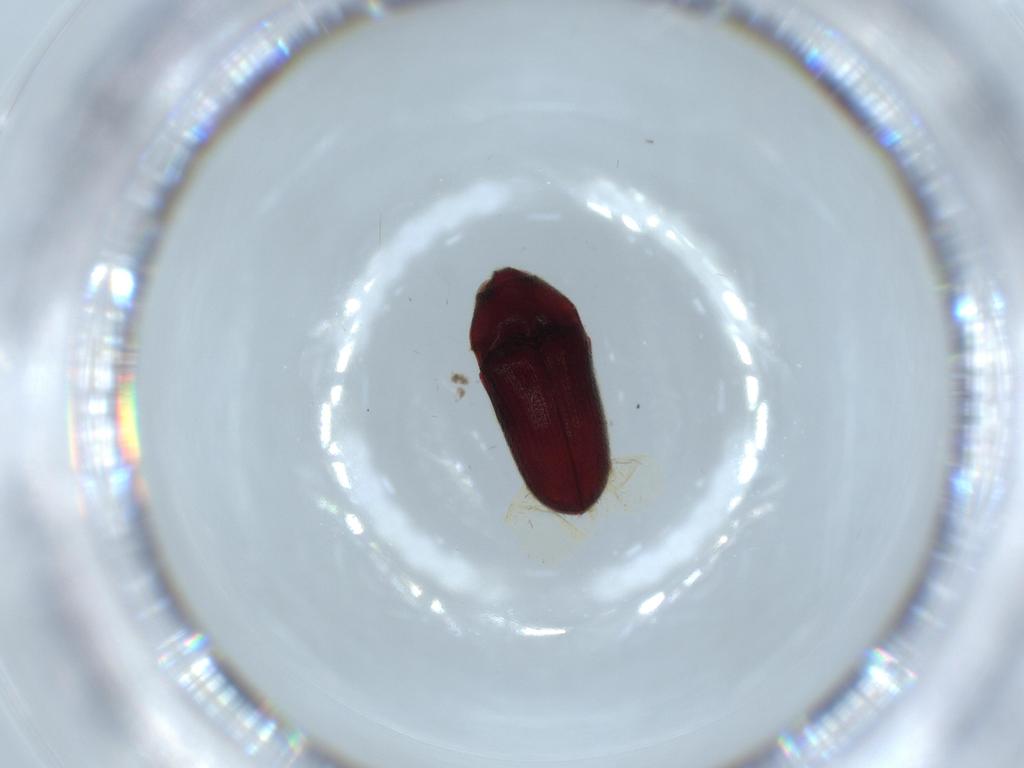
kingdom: Animalia
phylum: Arthropoda
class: Insecta
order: Coleoptera
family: Throscidae
